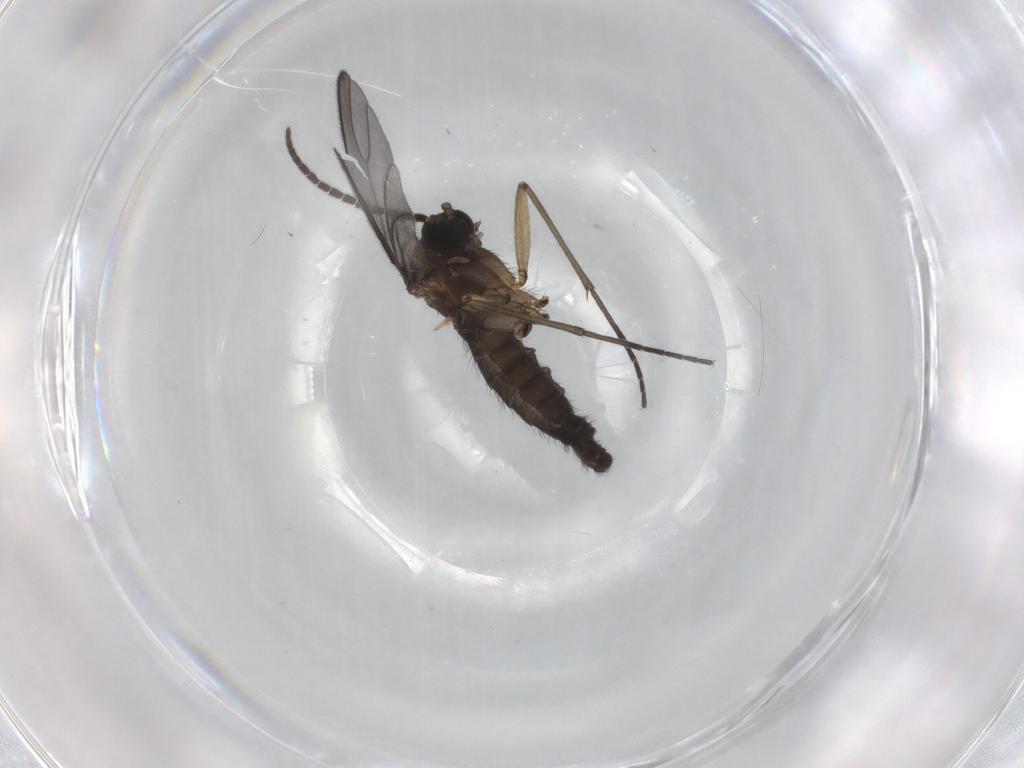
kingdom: Animalia
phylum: Arthropoda
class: Insecta
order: Diptera
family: Sciaridae
